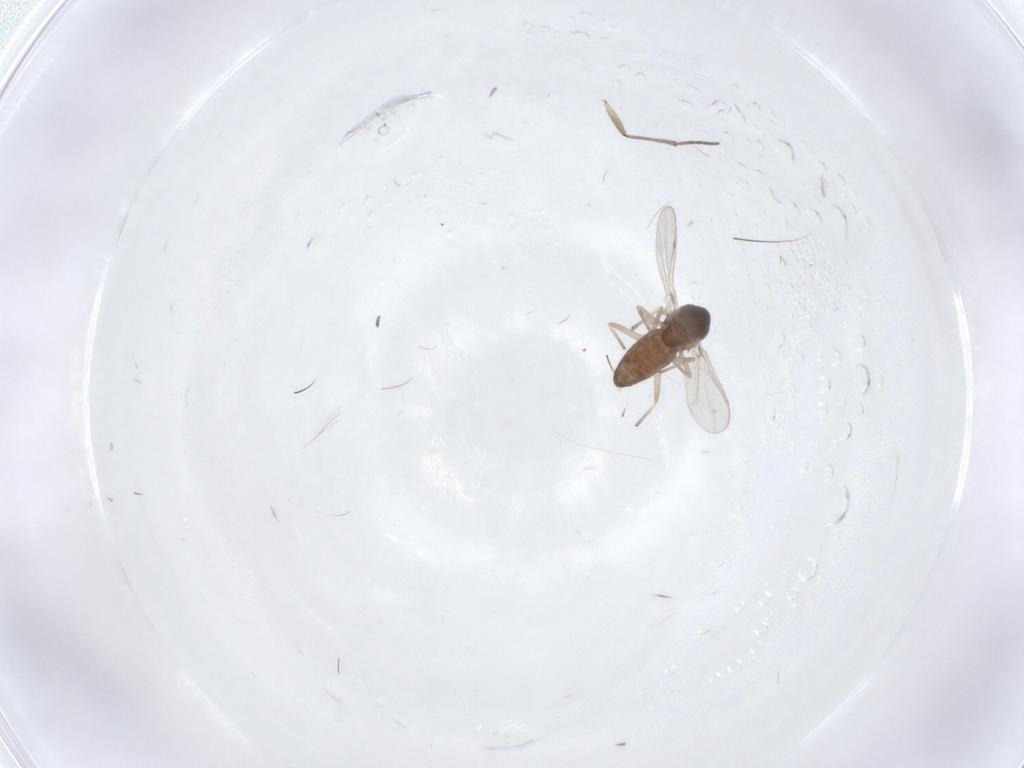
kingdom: Animalia
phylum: Arthropoda
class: Insecta
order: Diptera
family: Chironomidae
